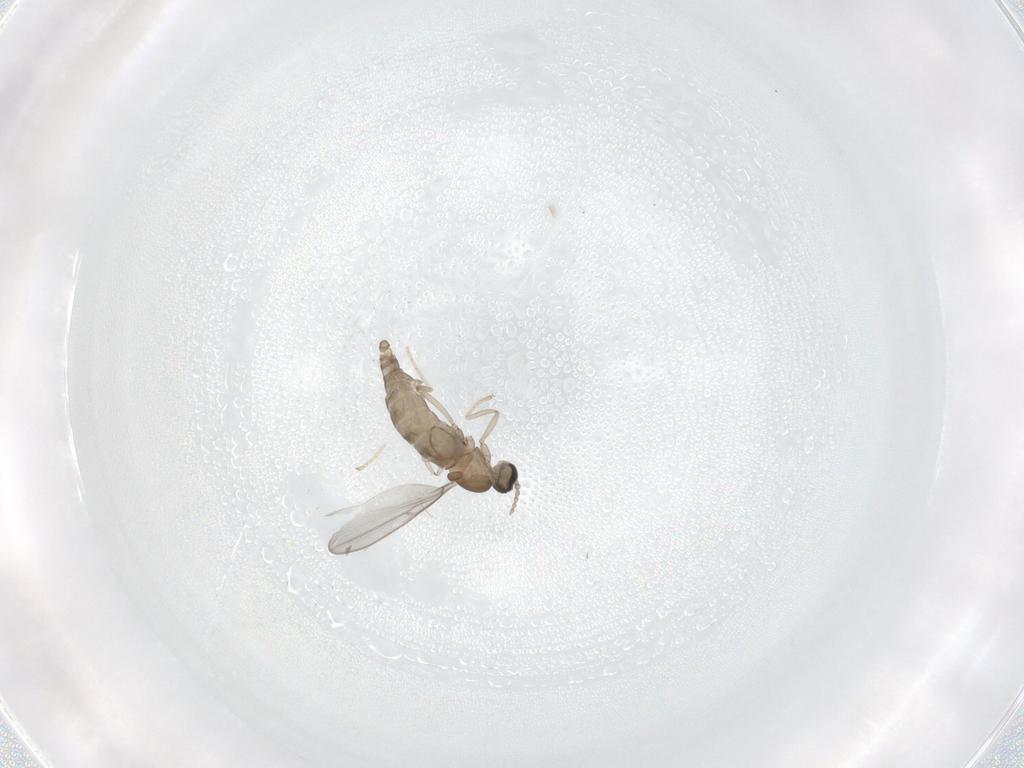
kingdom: Animalia
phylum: Arthropoda
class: Insecta
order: Diptera
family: Cecidomyiidae
